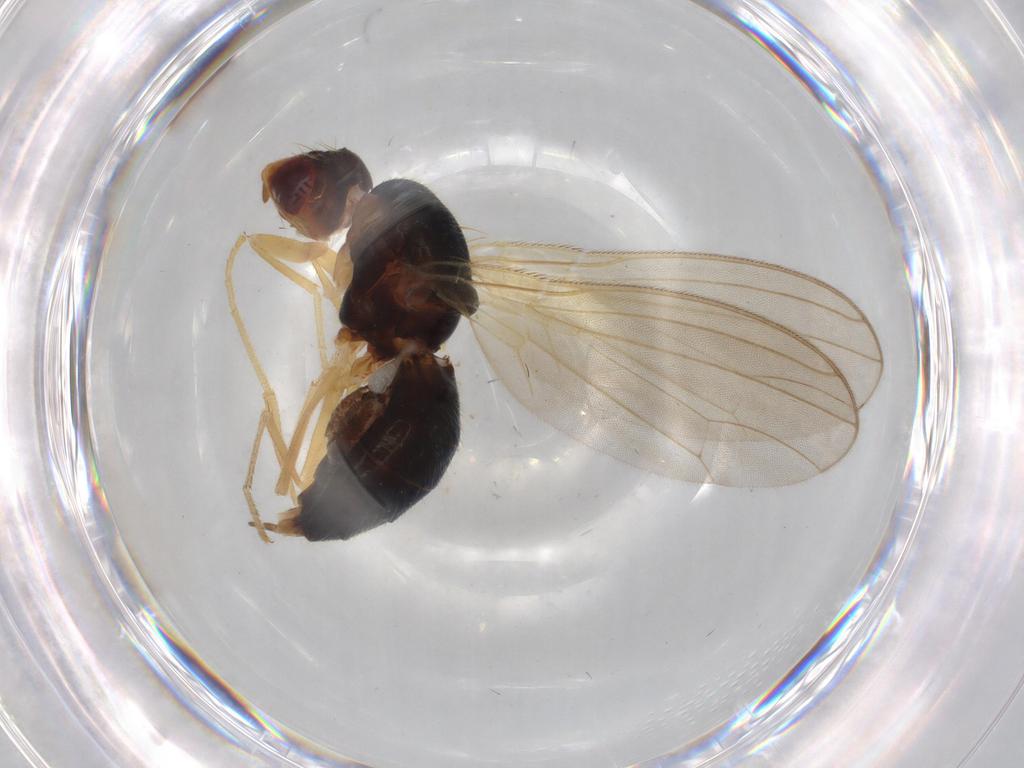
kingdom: Animalia
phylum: Arthropoda
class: Insecta
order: Diptera
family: Psilidae
